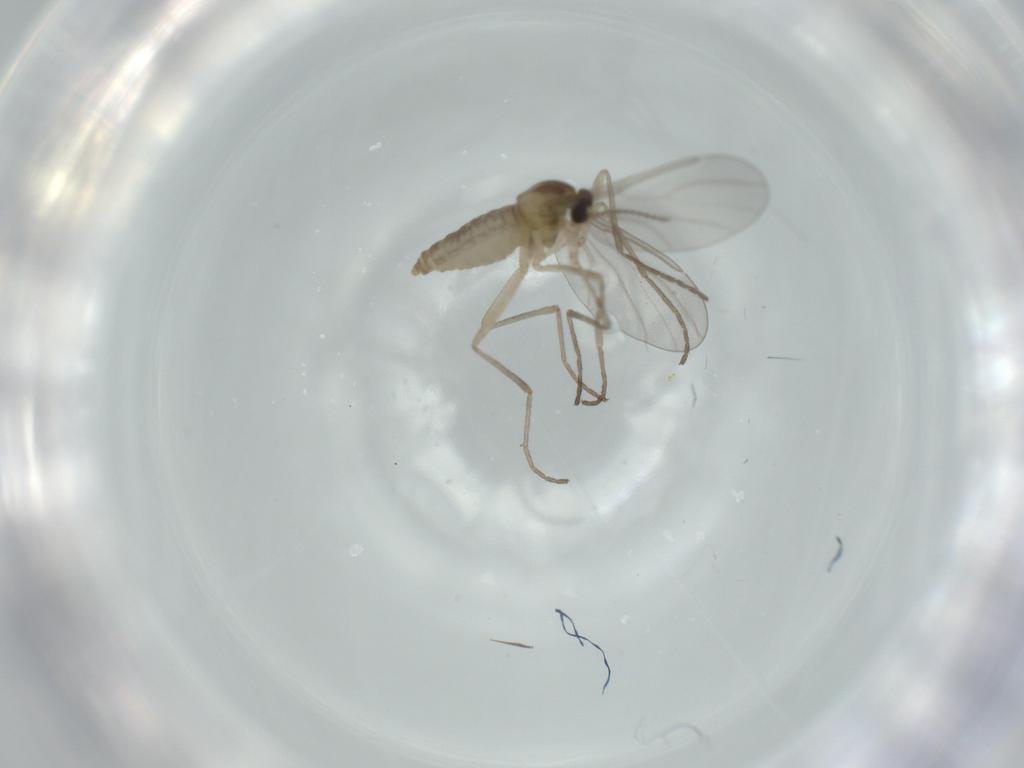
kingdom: Animalia
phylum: Arthropoda
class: Insecta
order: Diptera
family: Cecidomyiidae
